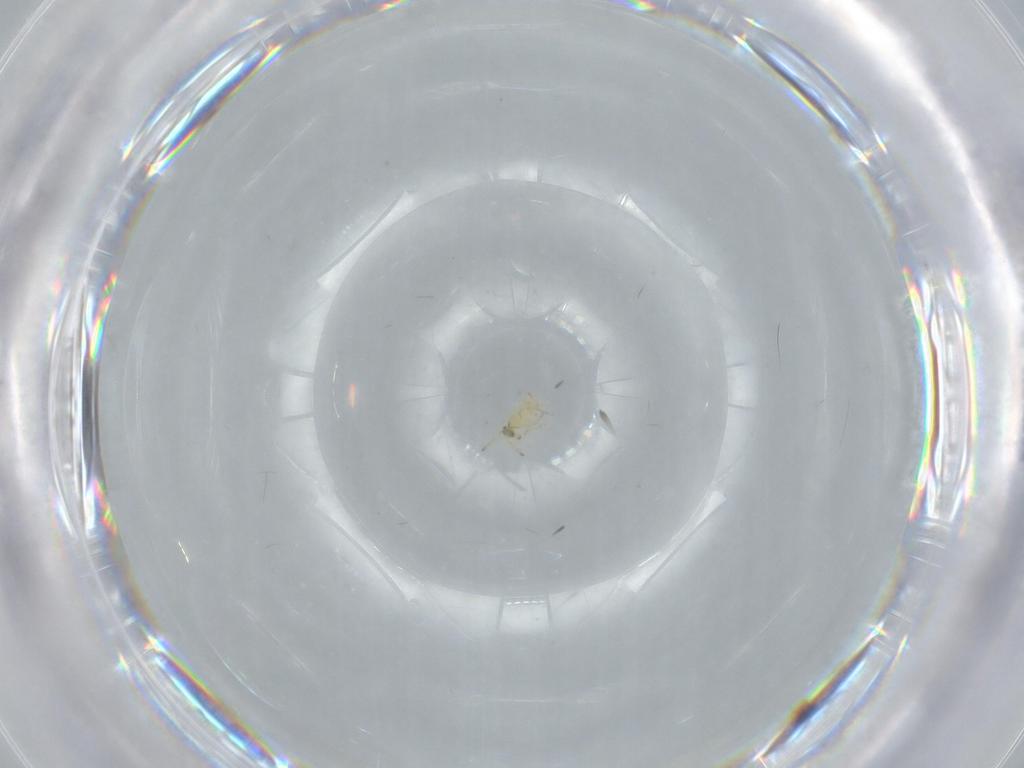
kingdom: Animalia
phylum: Arthropoda
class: Insecta
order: Hymenoptera
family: Aphelinidae
